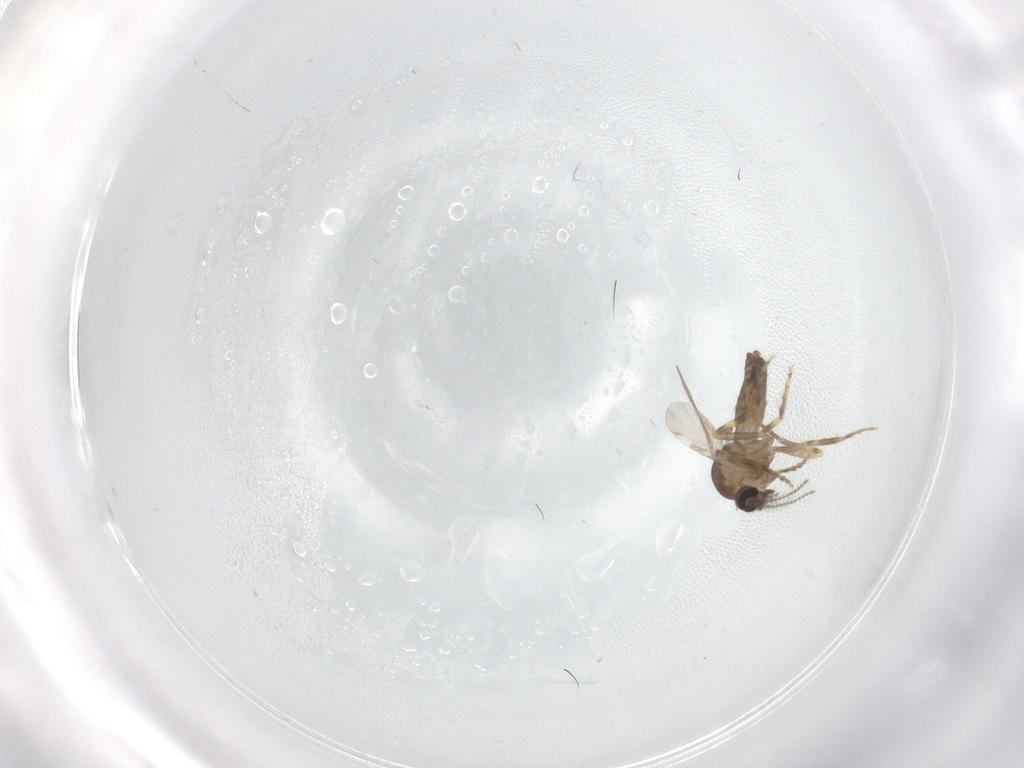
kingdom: Animalia
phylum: Arthropoda
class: Insecta
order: Diptera
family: Ceratopogonidae
